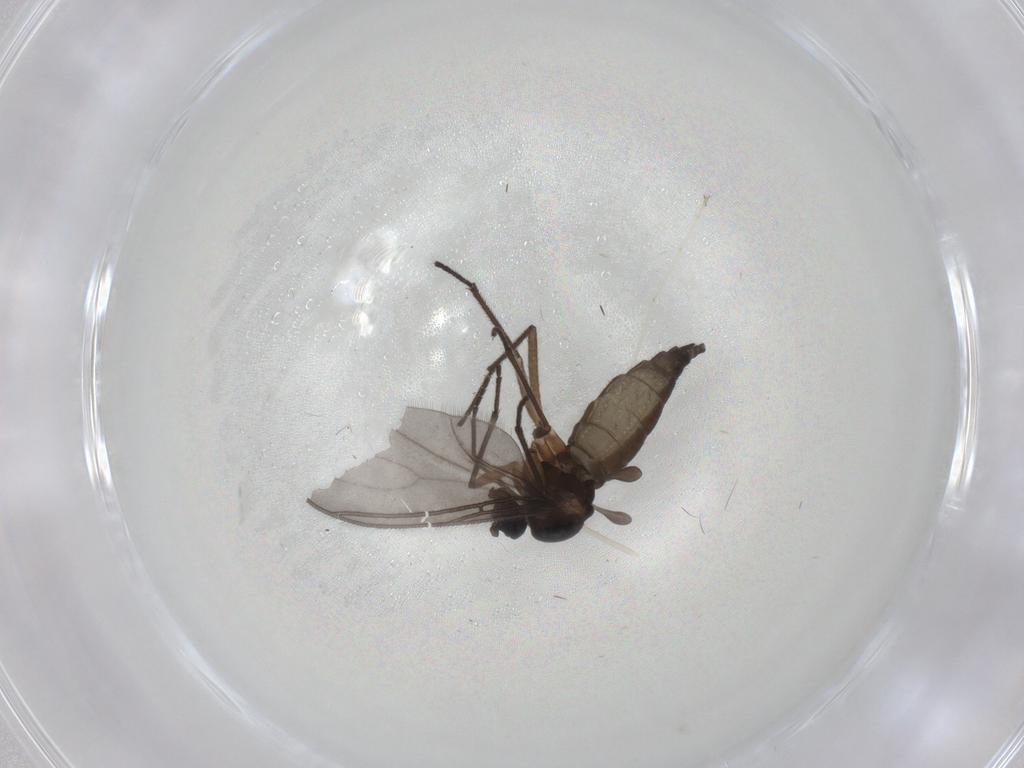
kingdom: Animalia
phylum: Arthropoda
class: Insecta
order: Diptera
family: Sciaridae
